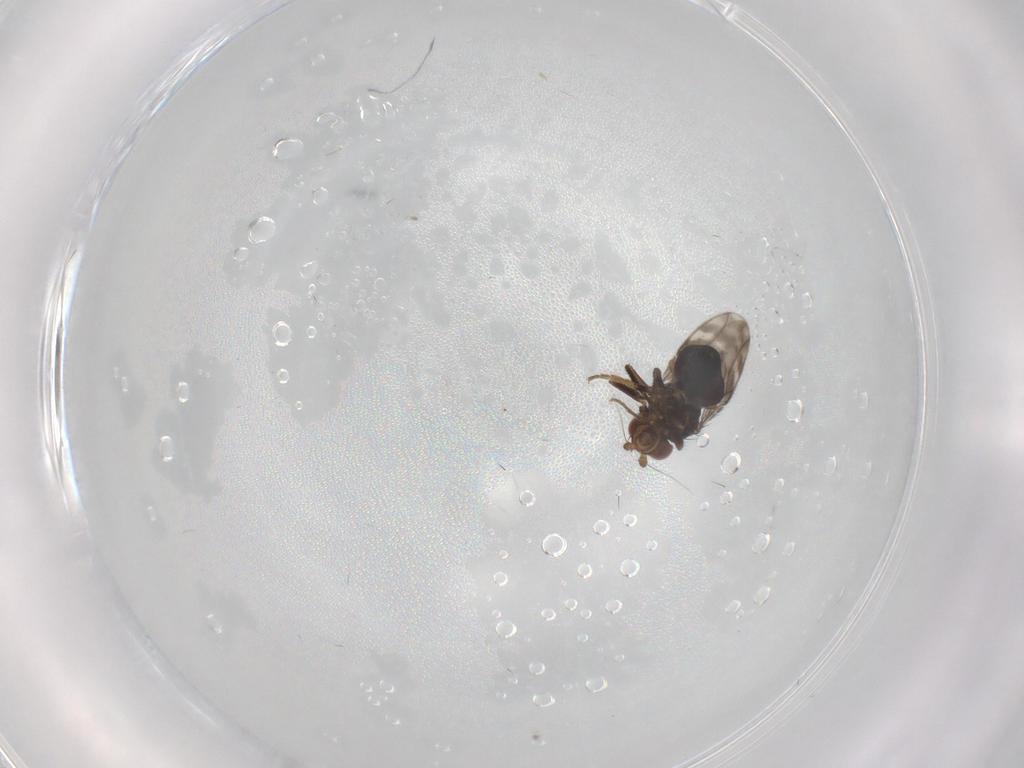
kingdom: Animalia
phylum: Arthropoda
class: Insecta
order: Diptera
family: Sphaeroceridae
